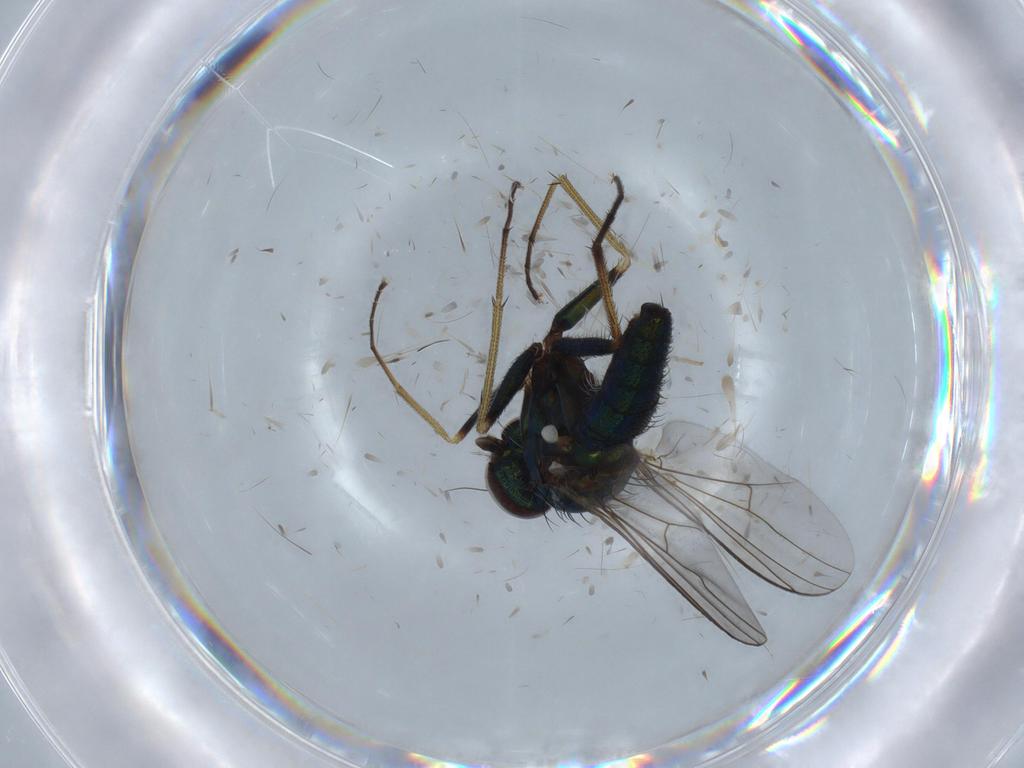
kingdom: Animalia
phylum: Arthropoda
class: Insecta
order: Diptera
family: Dolichopodidae
